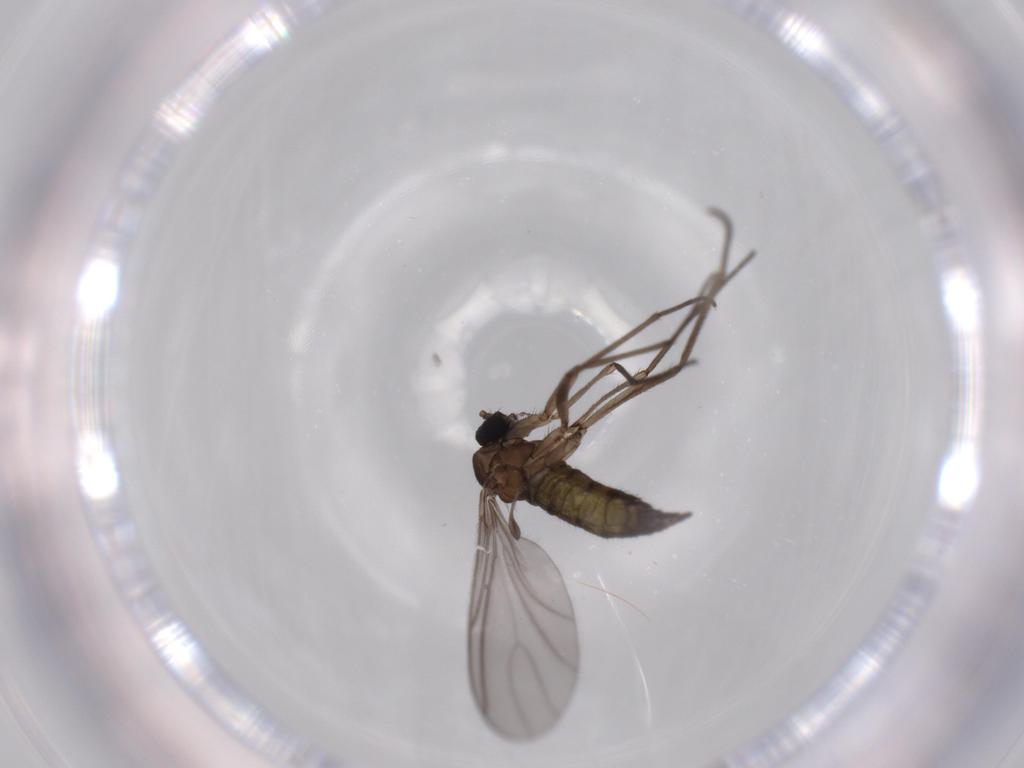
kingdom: Animalia
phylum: Arthropoda
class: Insecta
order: Diptera
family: Sciaridae
